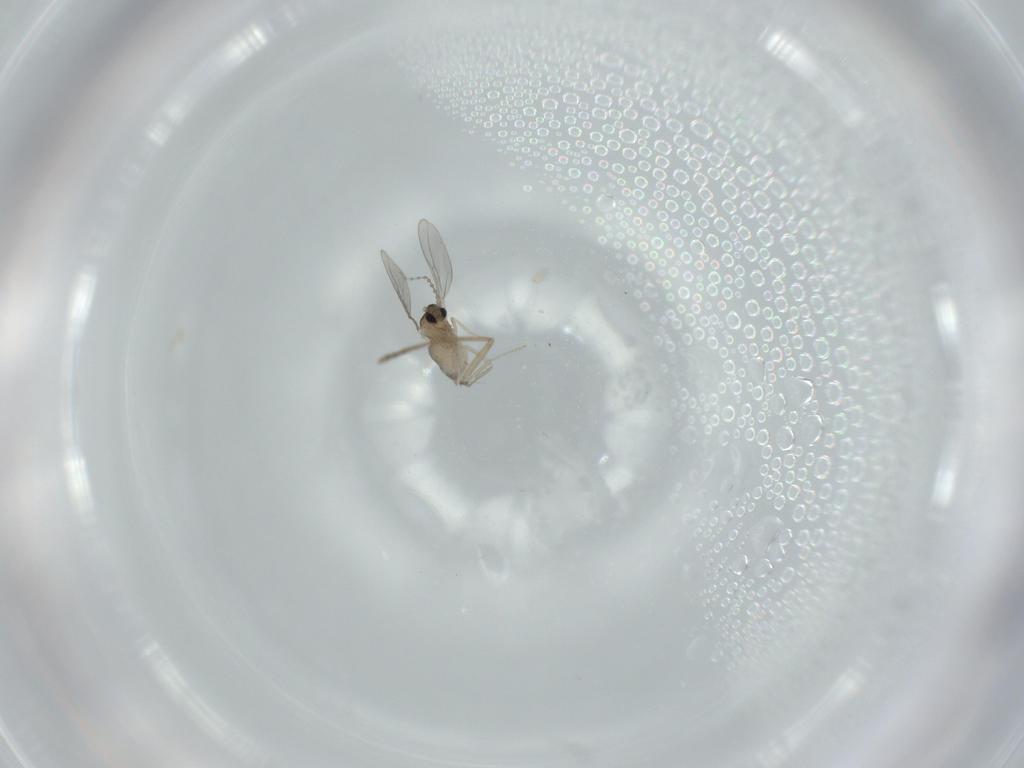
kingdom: Animalia
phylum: Arthropoda
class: Insecta
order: Diptera
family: Cecidomyiidae
